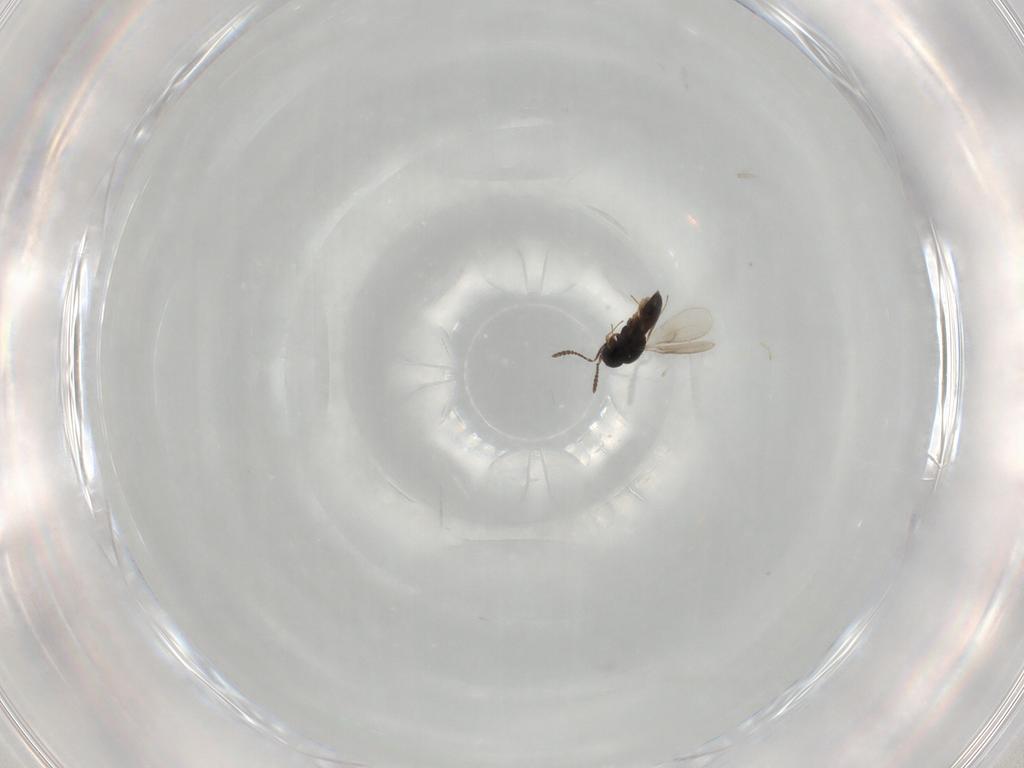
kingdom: Animalia
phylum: Arthropoda
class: Insecta
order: Hymenoptera
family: Scelionidae
